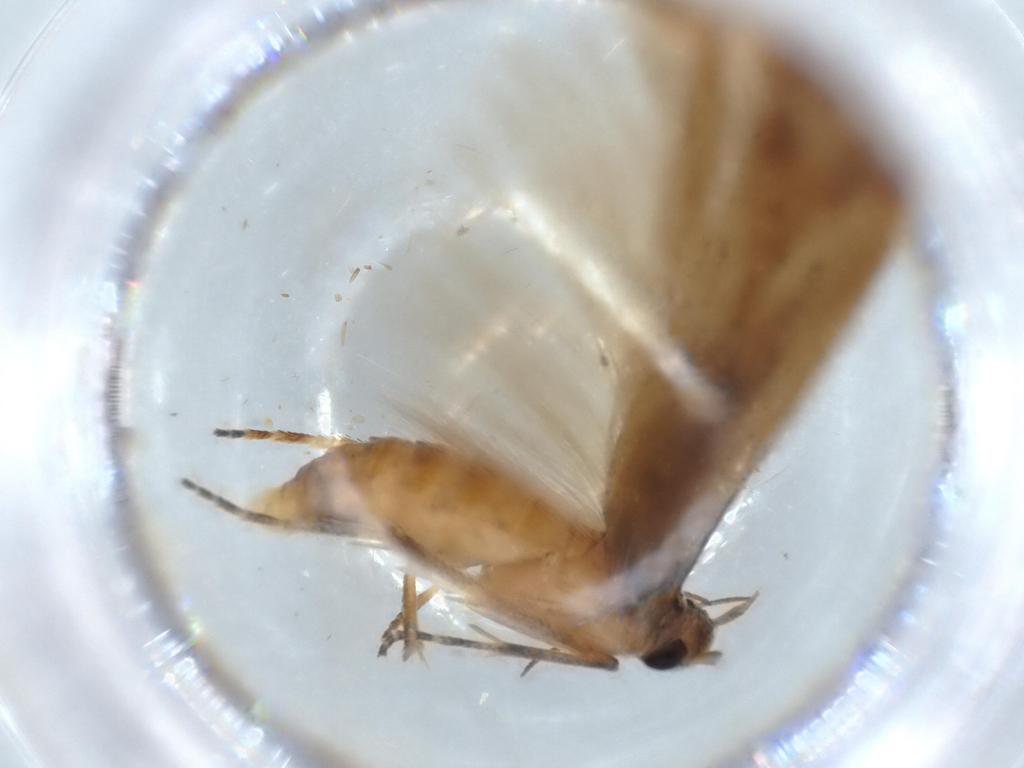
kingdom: Animalia
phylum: Arthropoda
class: Insecta
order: Lepidoptera
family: Stathmopodidae
